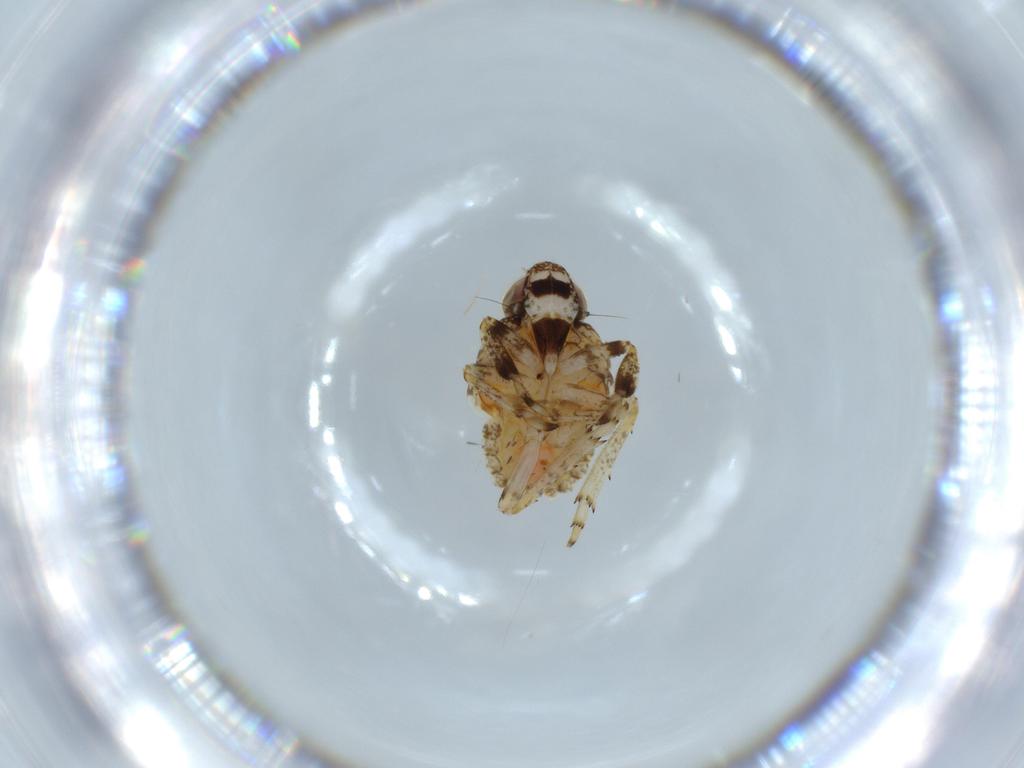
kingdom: Animalia
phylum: Arthropoda
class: Insecta
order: Hemiptera
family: Issidae
